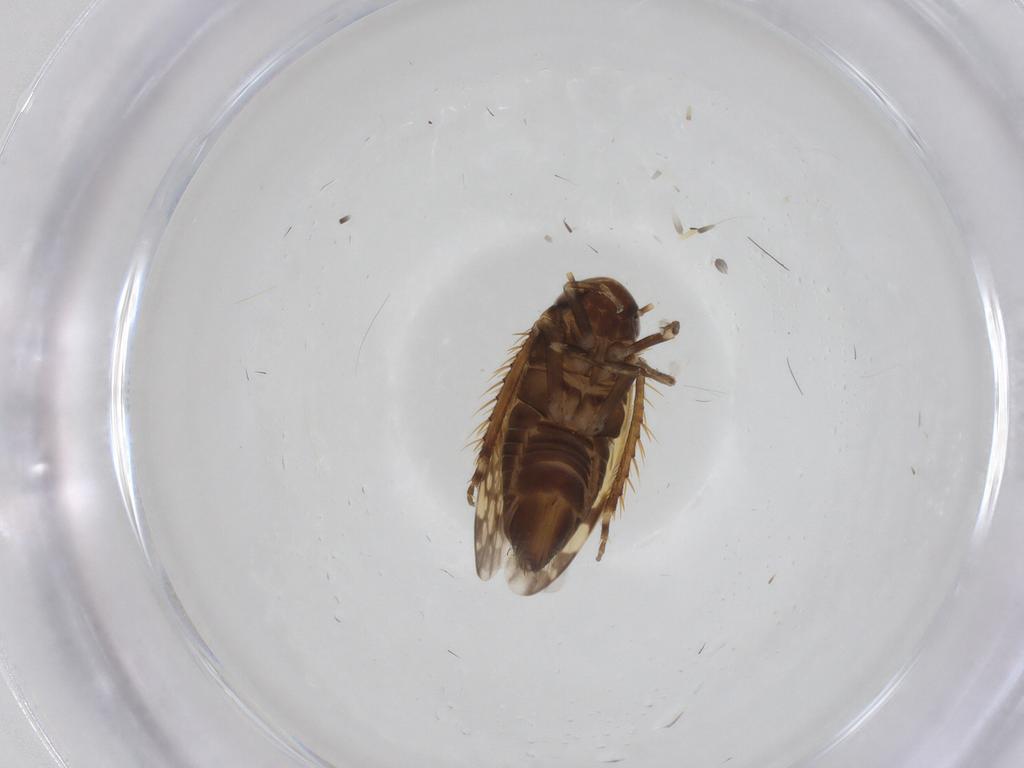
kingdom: Animalia
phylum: Arthropoda
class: Insecta
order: Hemiptera
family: Cicadellidae
